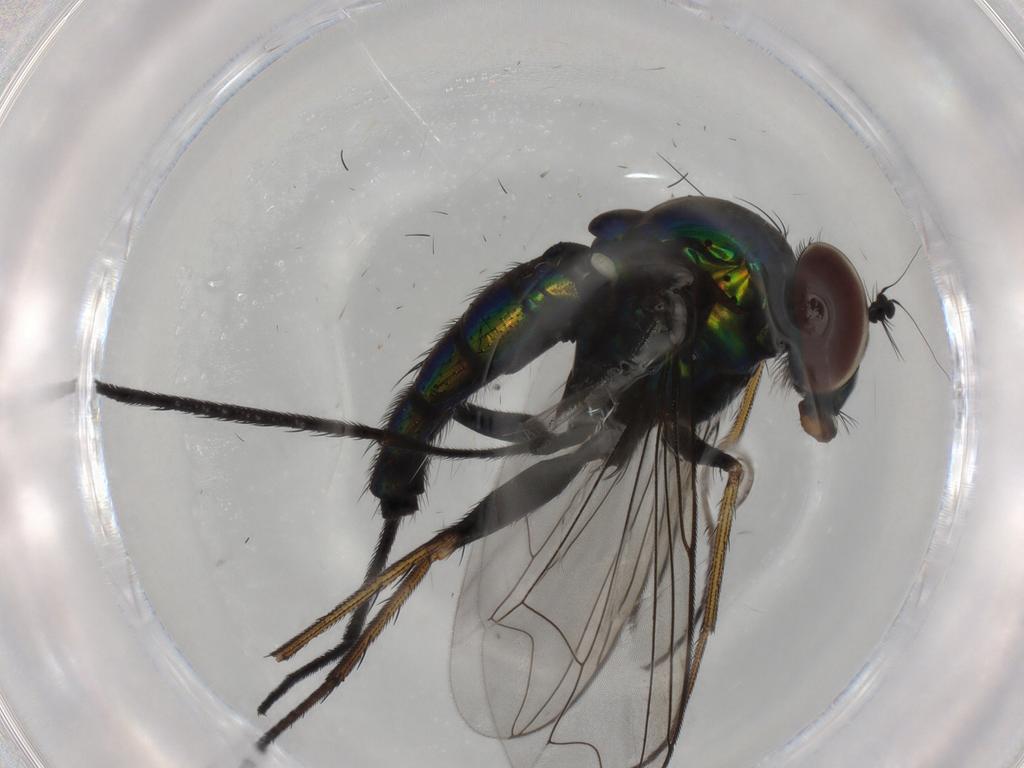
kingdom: Animalia
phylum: Arthropoda
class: Insecta
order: Diptera
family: Dolichopodidae
